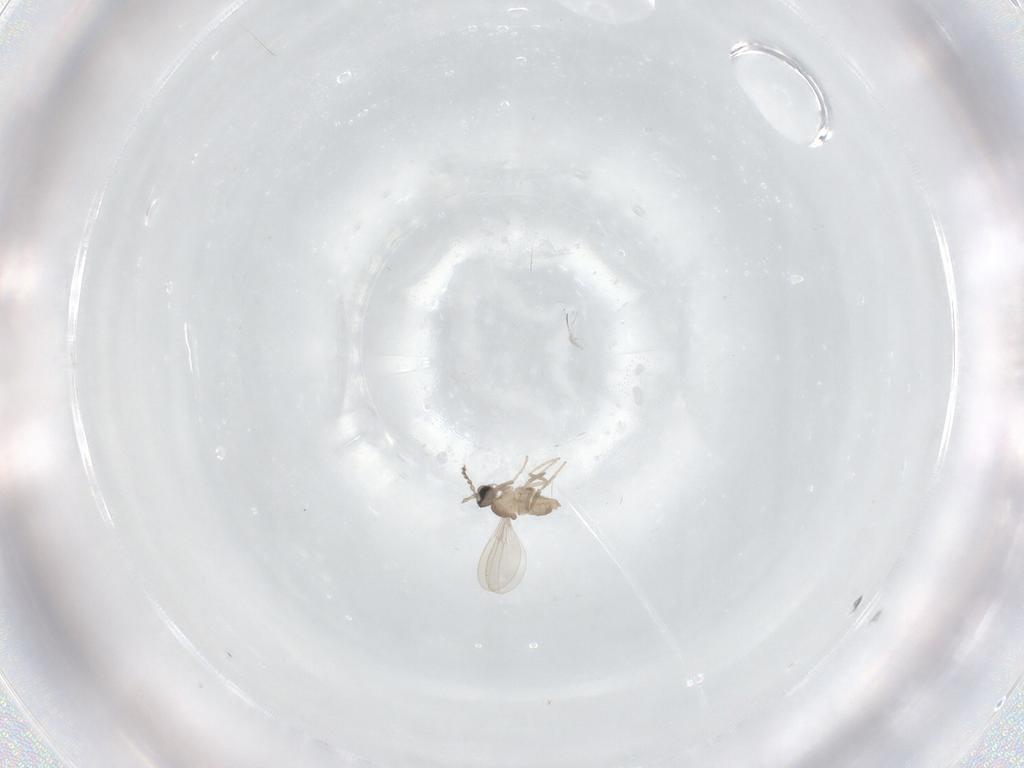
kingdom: Animalia
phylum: Arthropoda
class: Insecta
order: Diptera
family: Cecidomyiidae
